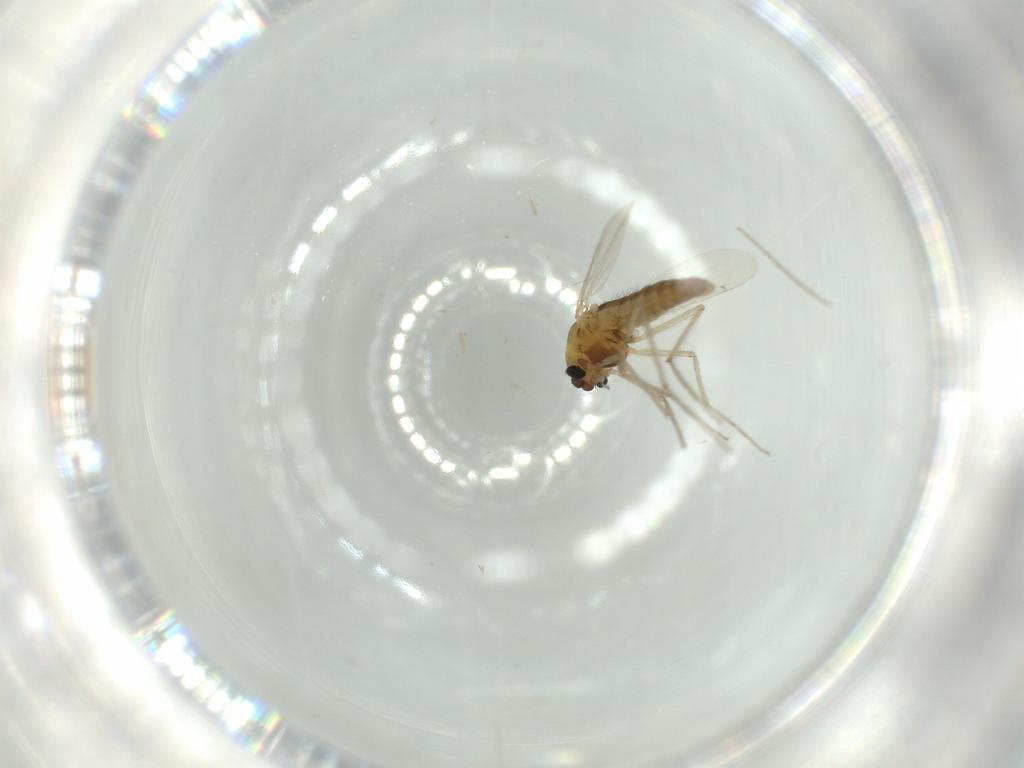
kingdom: Animalia
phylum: Arthropoda
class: Insecta
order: Diptera
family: Chironomidae
